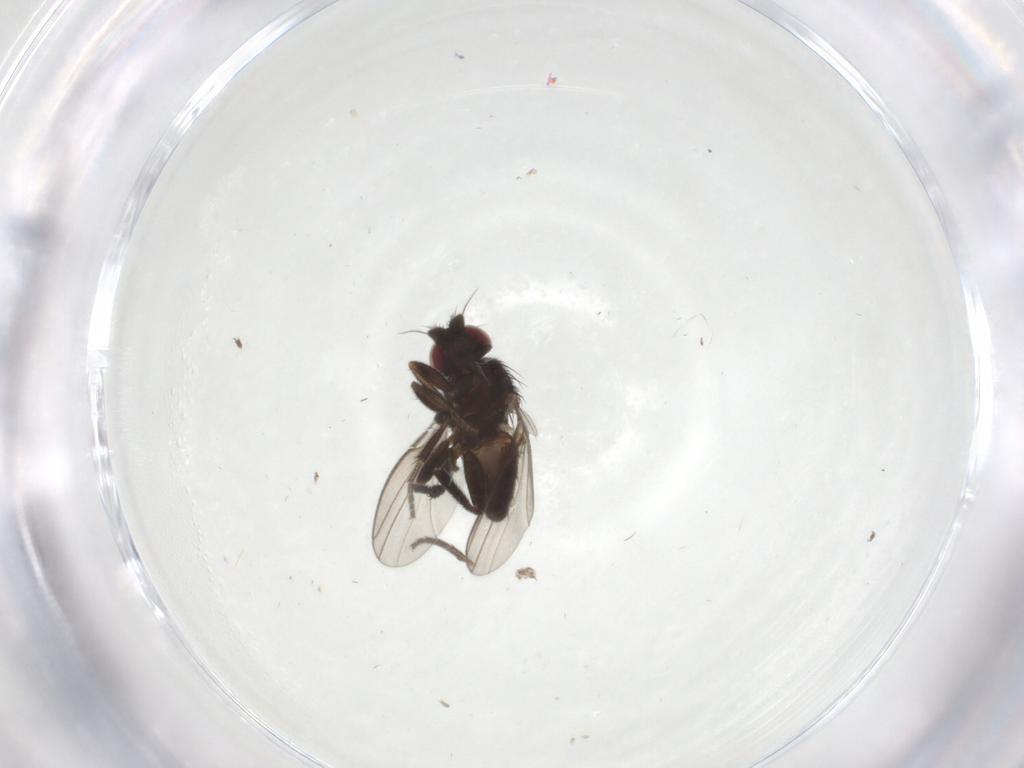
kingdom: Animalia
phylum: Arthropoda
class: Insecta
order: Diptera
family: Milichiidae
